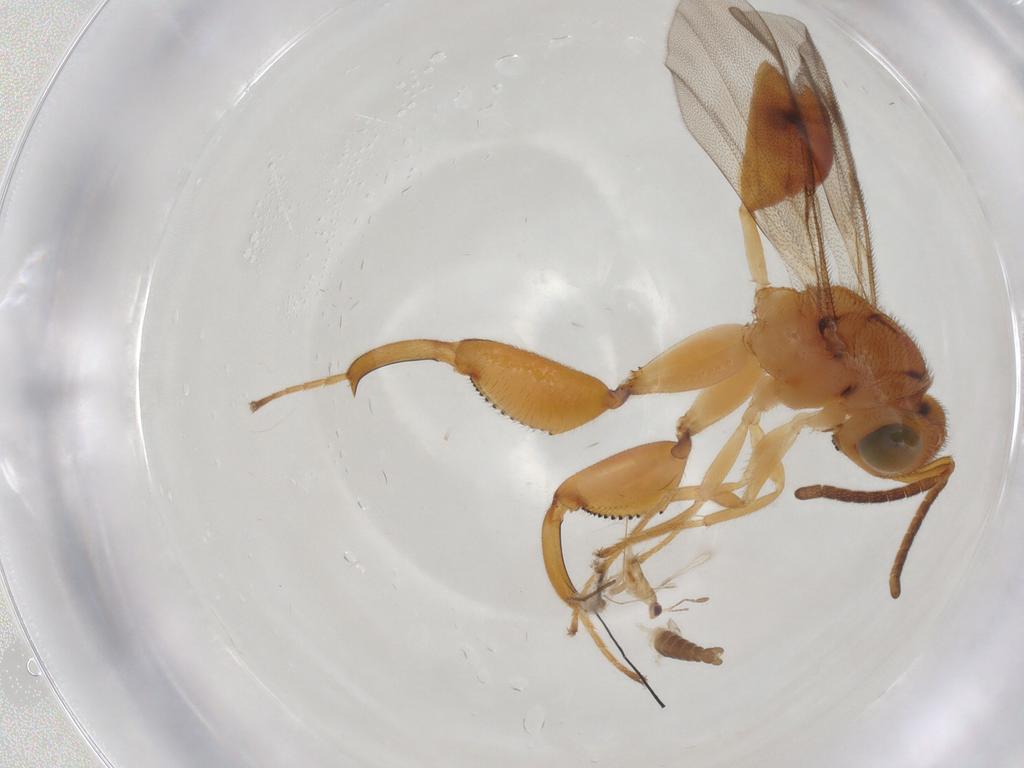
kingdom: Animalia
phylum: Arthropoda
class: Insecta
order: Hymenoptera
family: Chalcididae
